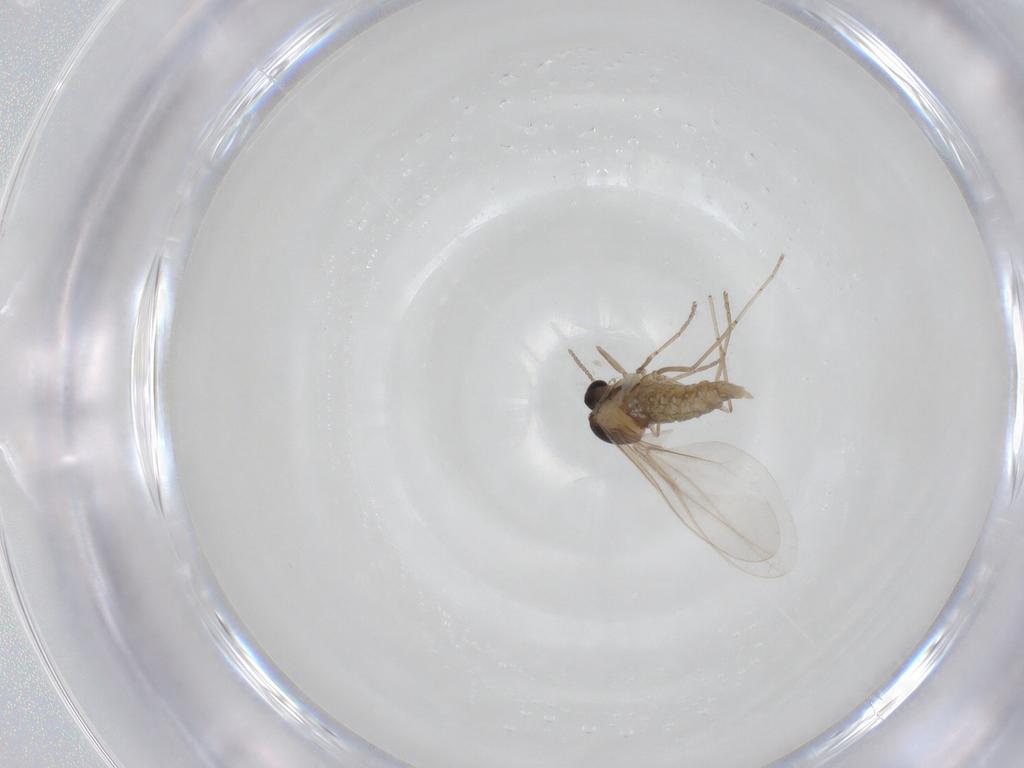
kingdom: Animalia
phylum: Arthropoda
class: Insecta
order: Diptera
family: Cecidomyiidae
